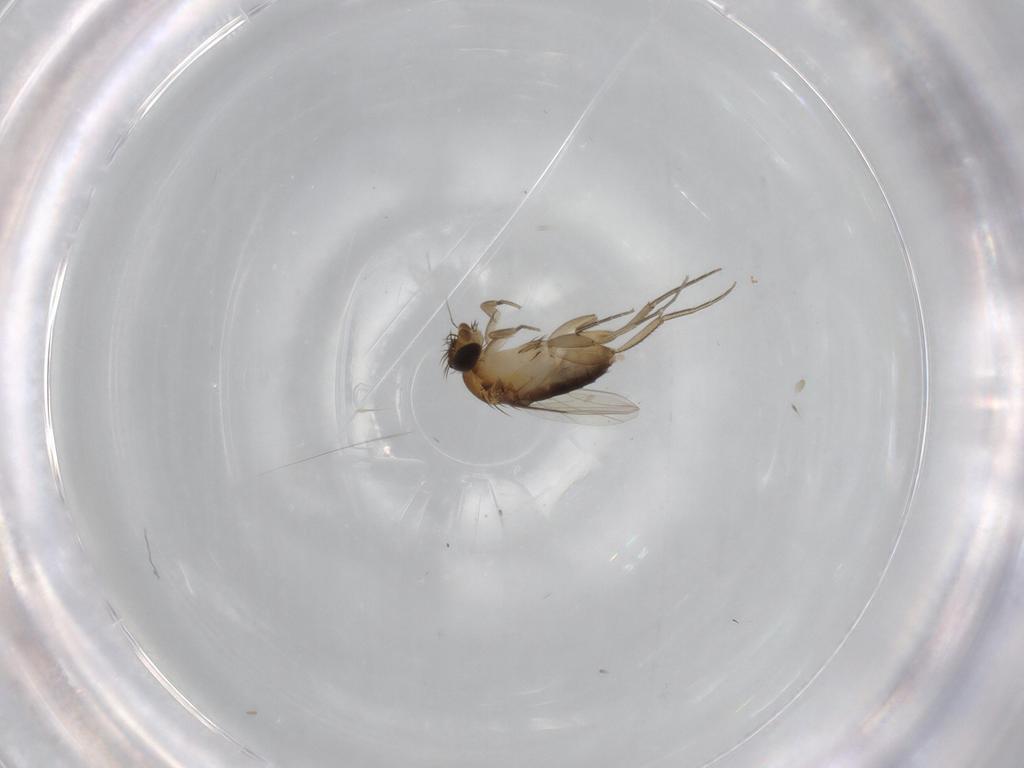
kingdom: Animalia
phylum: Arthropoda
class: Insecta
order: Diptera
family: Phoridae
